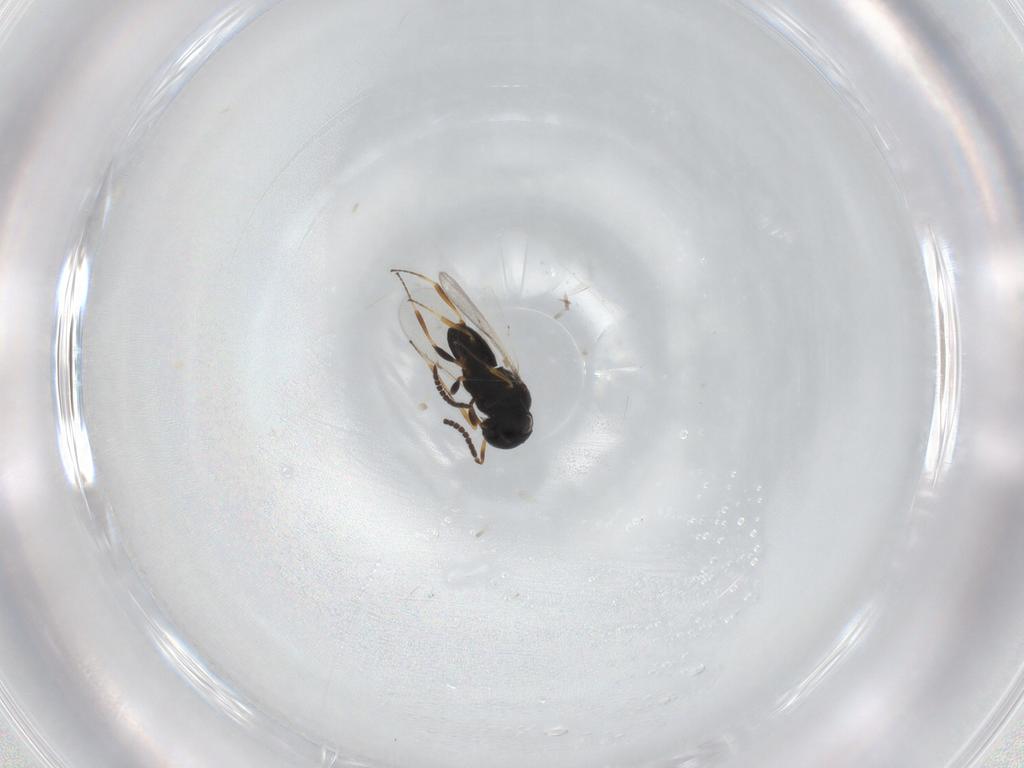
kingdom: Animalia
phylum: Arthropoda
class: Insecta
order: Coleoptera
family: Curculionidae
